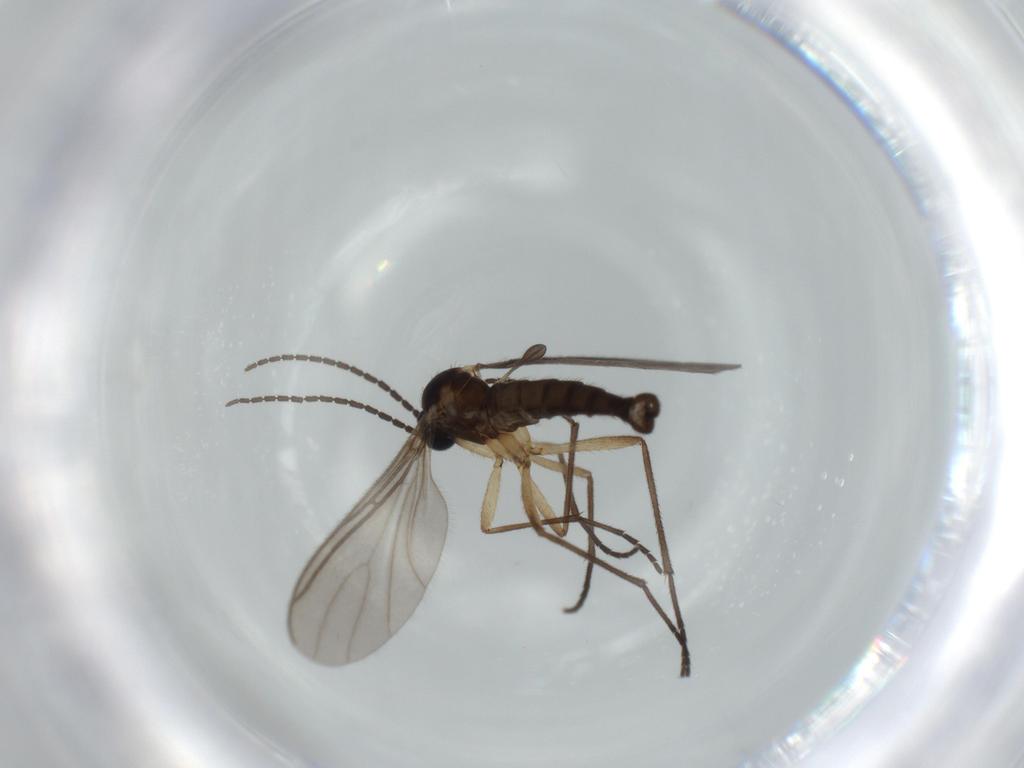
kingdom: Animalia
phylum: Arthropoda
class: Insecta
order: Diptera
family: Sciaridae
